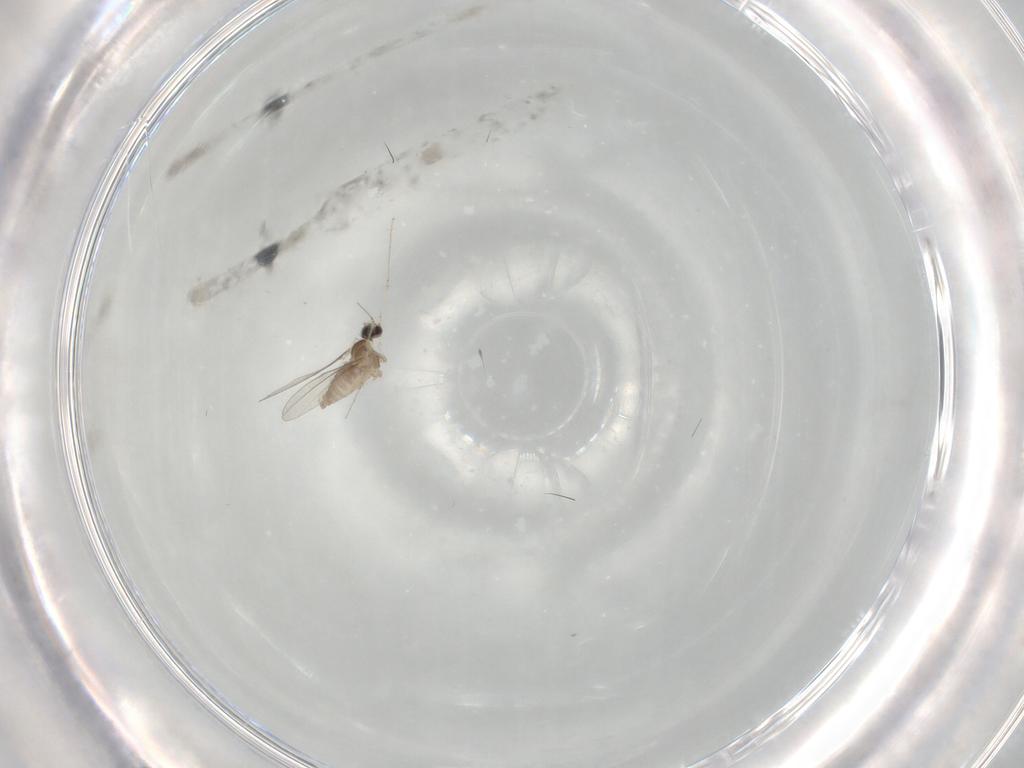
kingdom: Animalia
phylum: Arthropoda
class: Insecta
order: Diptera
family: Cecidomyiidae
